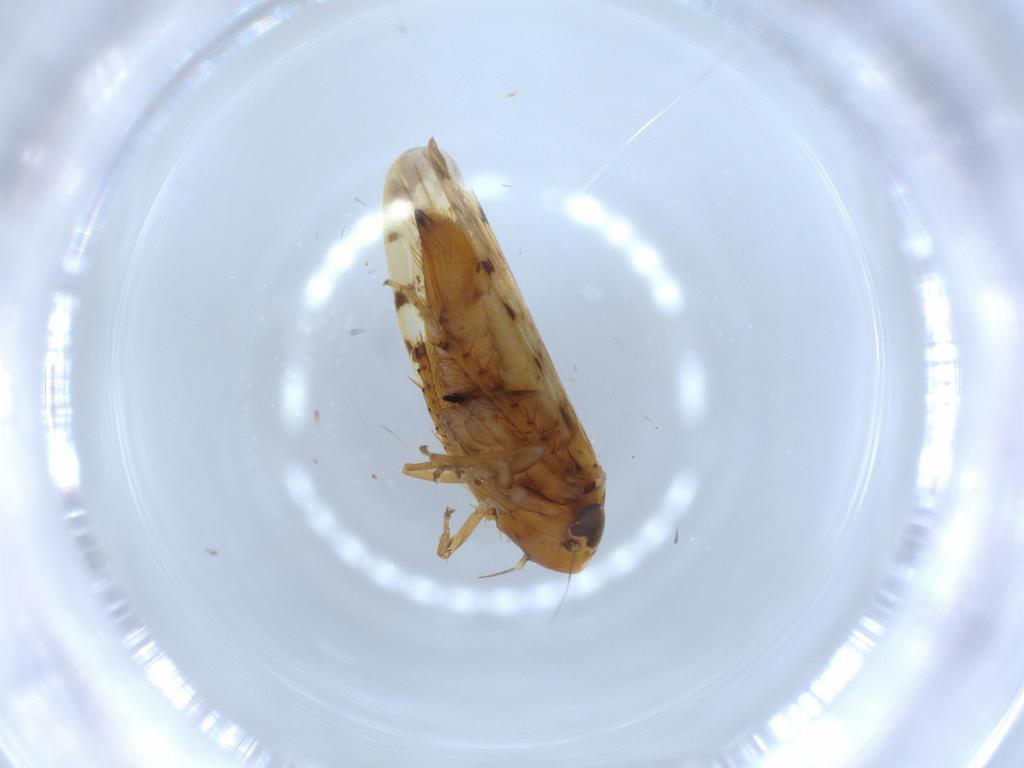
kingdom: Animalia
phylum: Arthropoda
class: Insecta
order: Hemiptera
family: Cicadellidae
